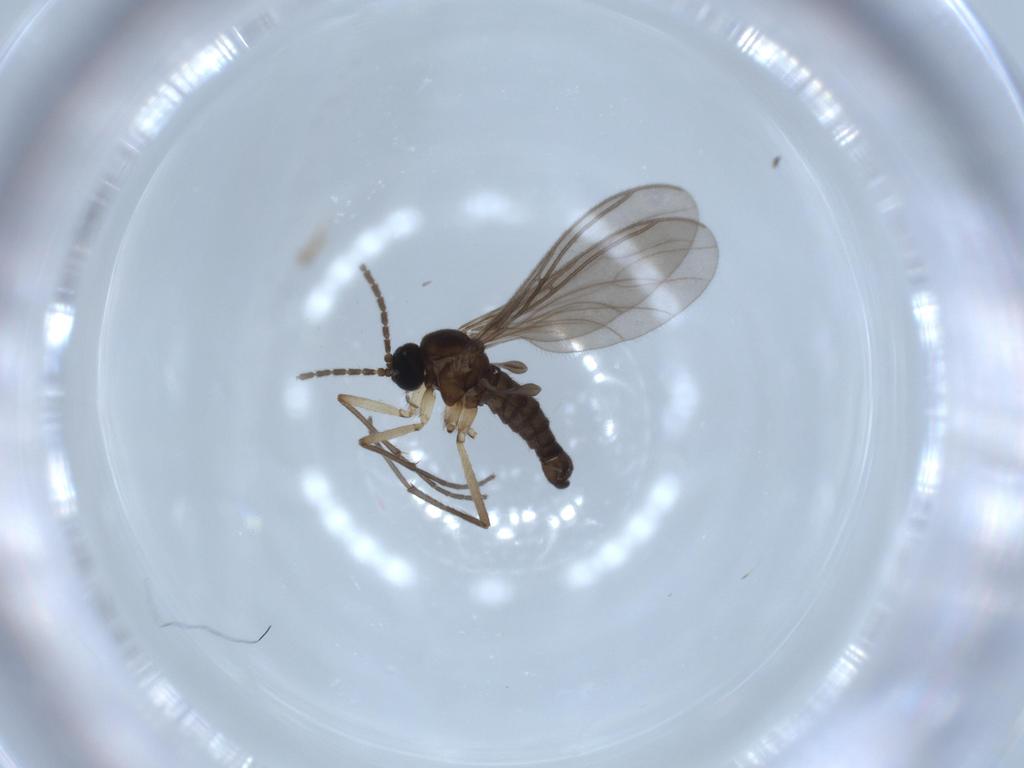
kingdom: Animalia
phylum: Arthropoda
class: Insecta
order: Diptera
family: Sciaridae
